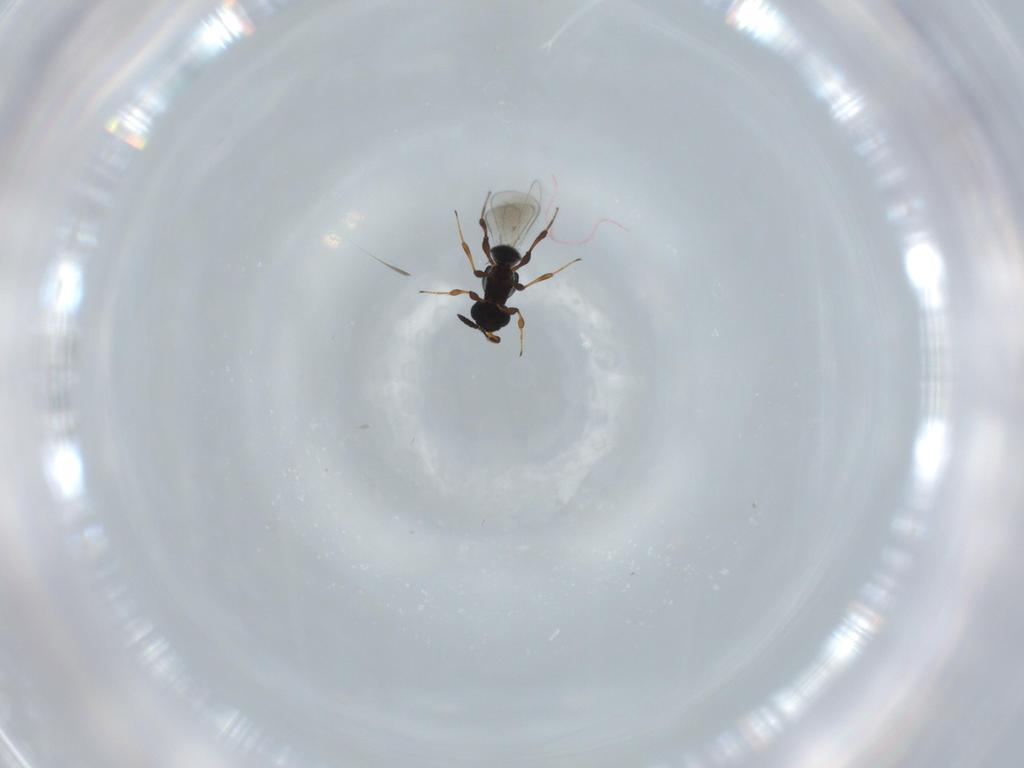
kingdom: Animalia
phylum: Arthropoda
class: Insecta
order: Hymenoptera
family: Platygastridae
